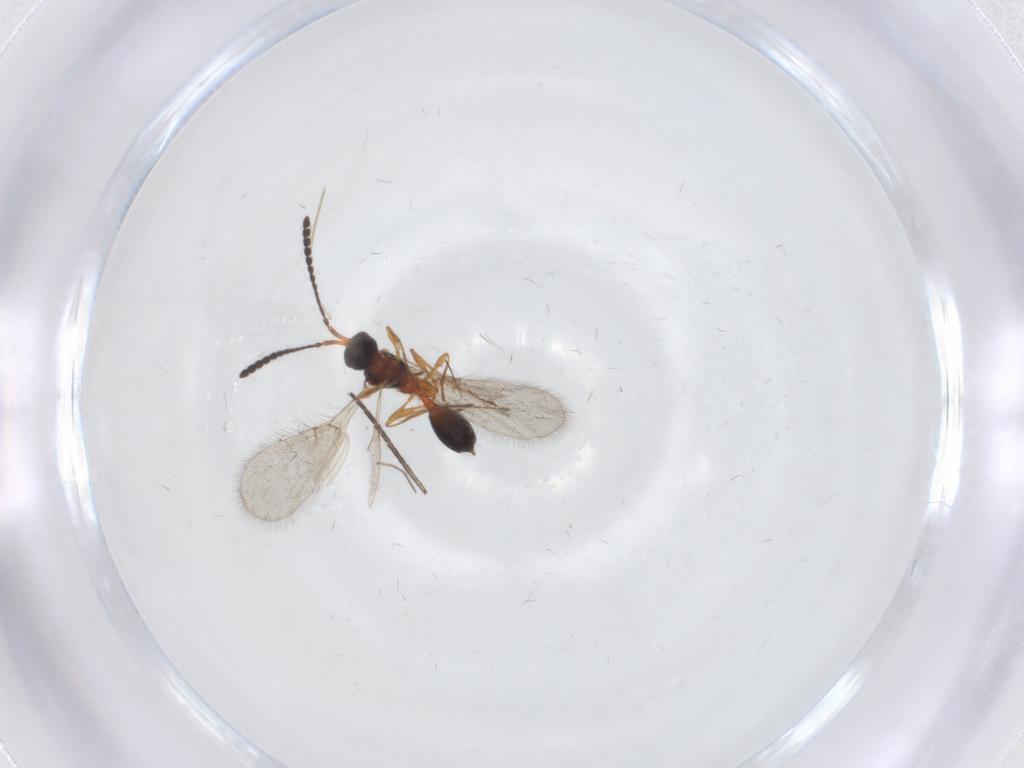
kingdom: Animalia
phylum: Arthropoda
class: Insecta
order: Hymenoptera
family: Diapriidae
